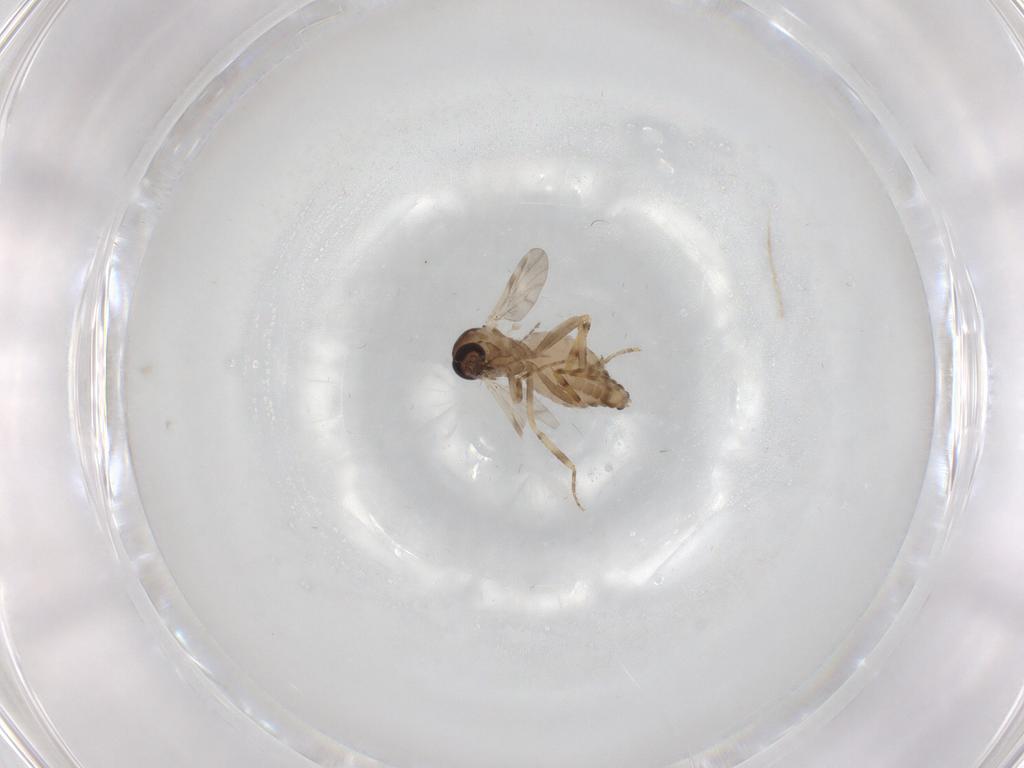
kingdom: Animalia
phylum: Arthropoda
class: Insecta
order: Diptera
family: Ceratopogonidae
